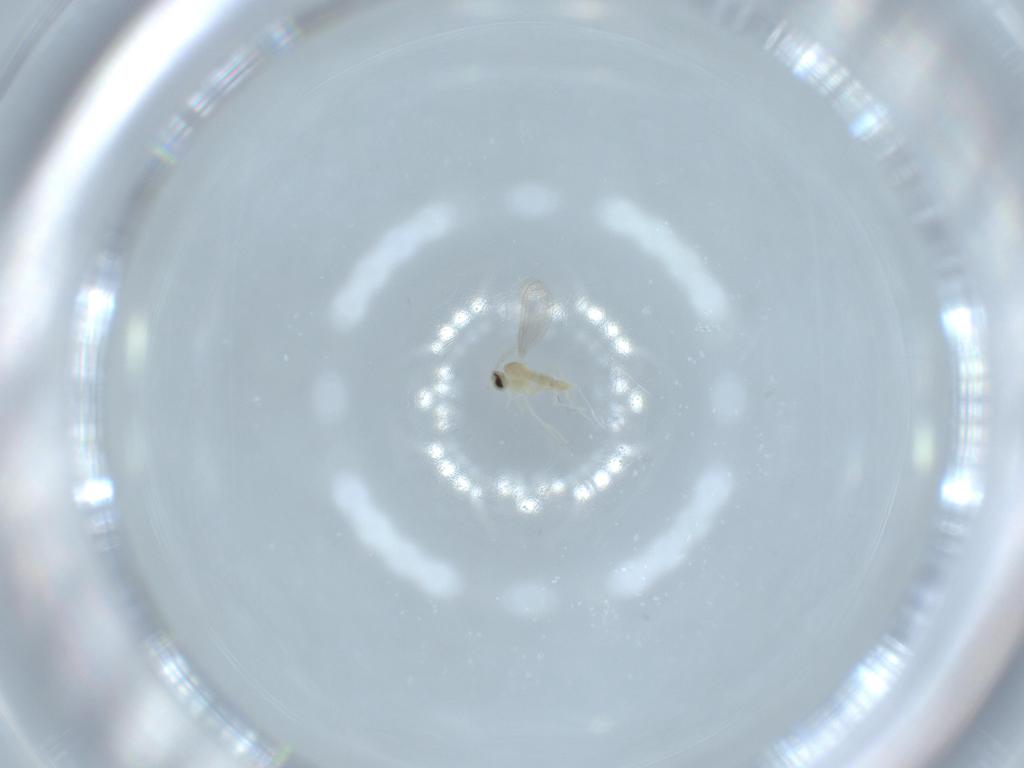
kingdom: Animalia
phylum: Arthropoda
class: Insecta
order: Diptera
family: Cecidomyiidae
